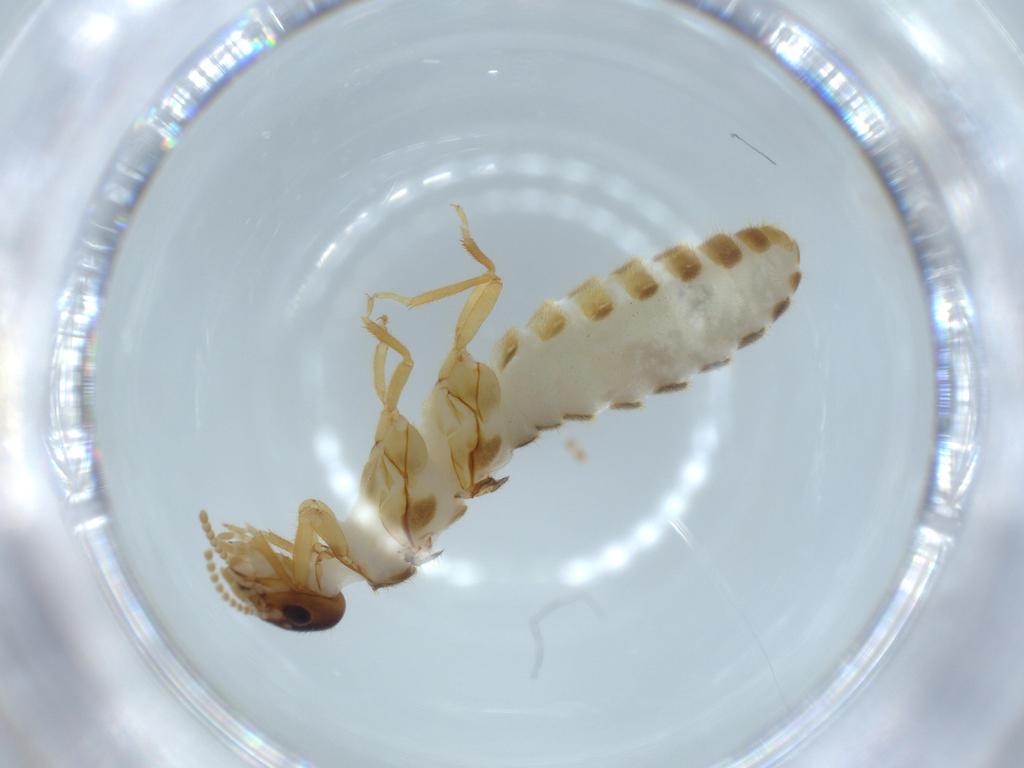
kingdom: Animalia
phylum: Arthropoda
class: Insecta
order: Blattodea
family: Termitidae
